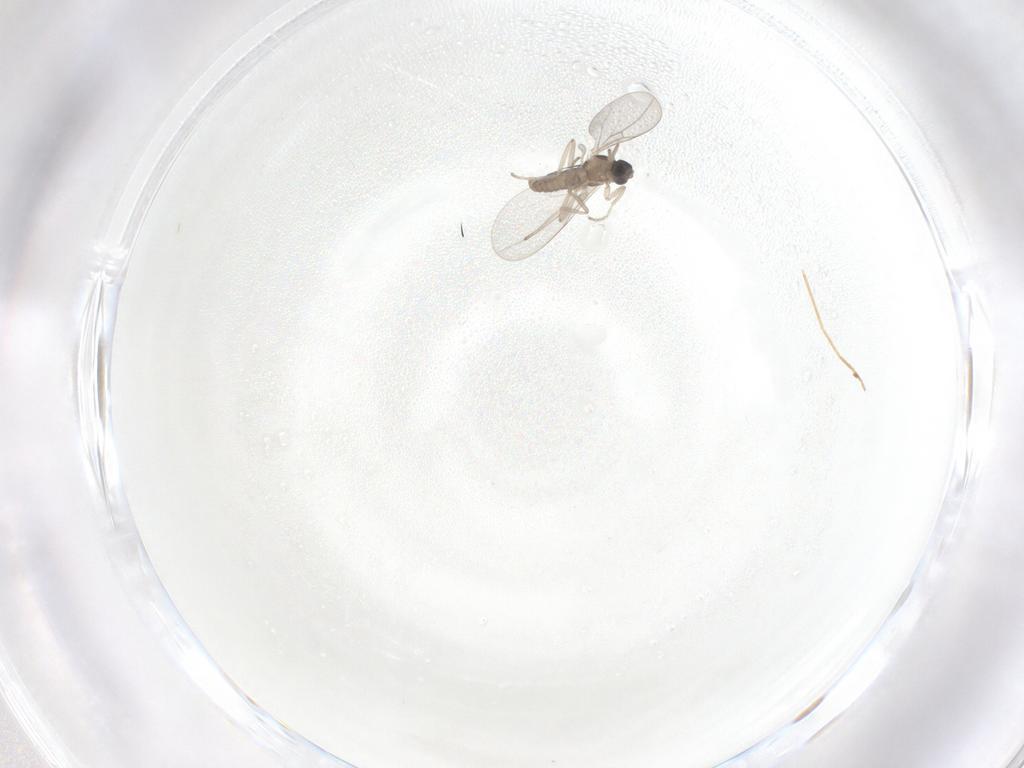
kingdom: Animalia
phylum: Arthropoda
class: Insecta
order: Diptera
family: Cecidomyiidae
